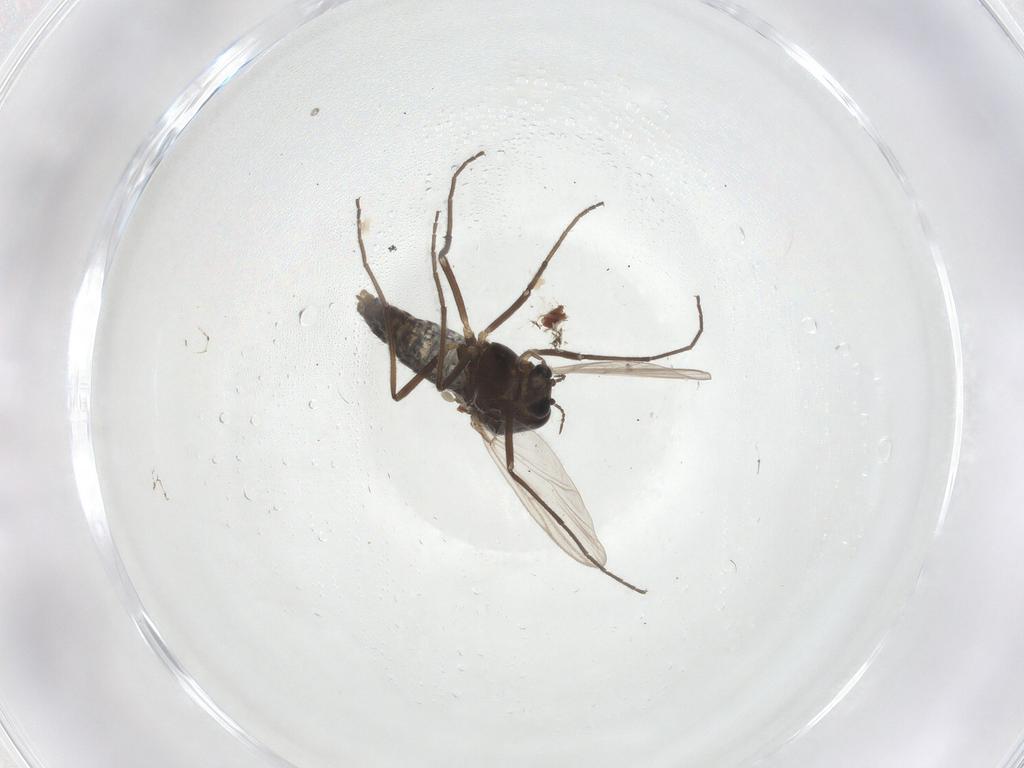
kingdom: Animalia
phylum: Arthropoda
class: Insecta
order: Diptera
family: Chironomidae
